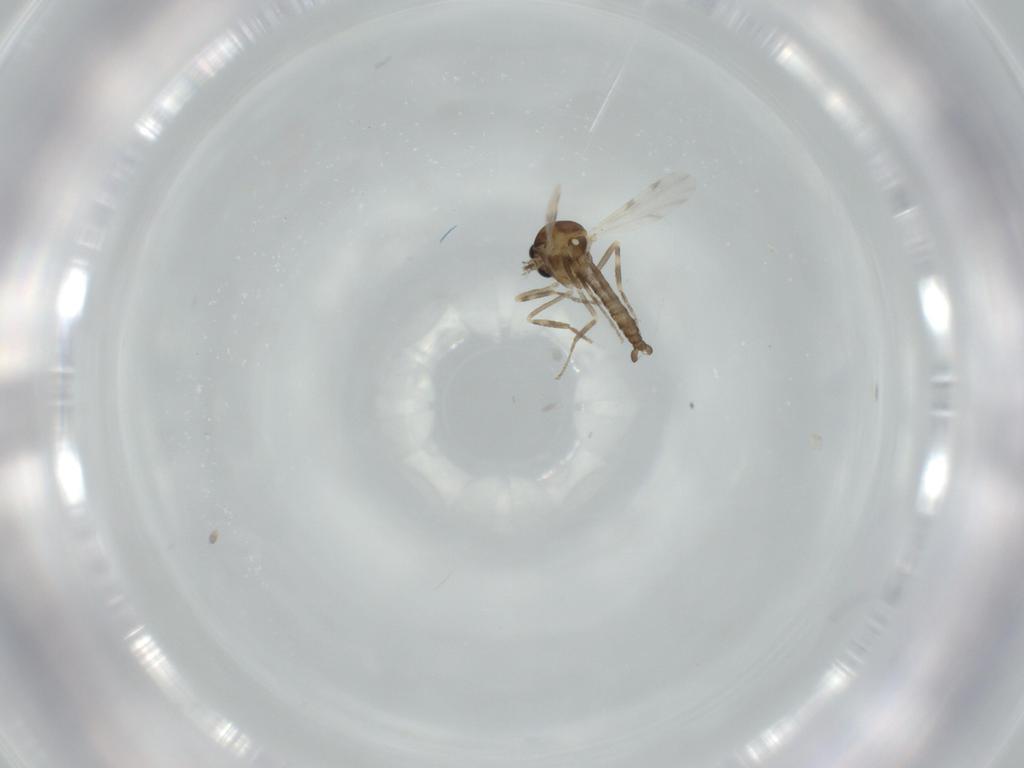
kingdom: Animalia
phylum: Arthropoda
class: Insecta
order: Diptera
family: Ceratopogonidae
